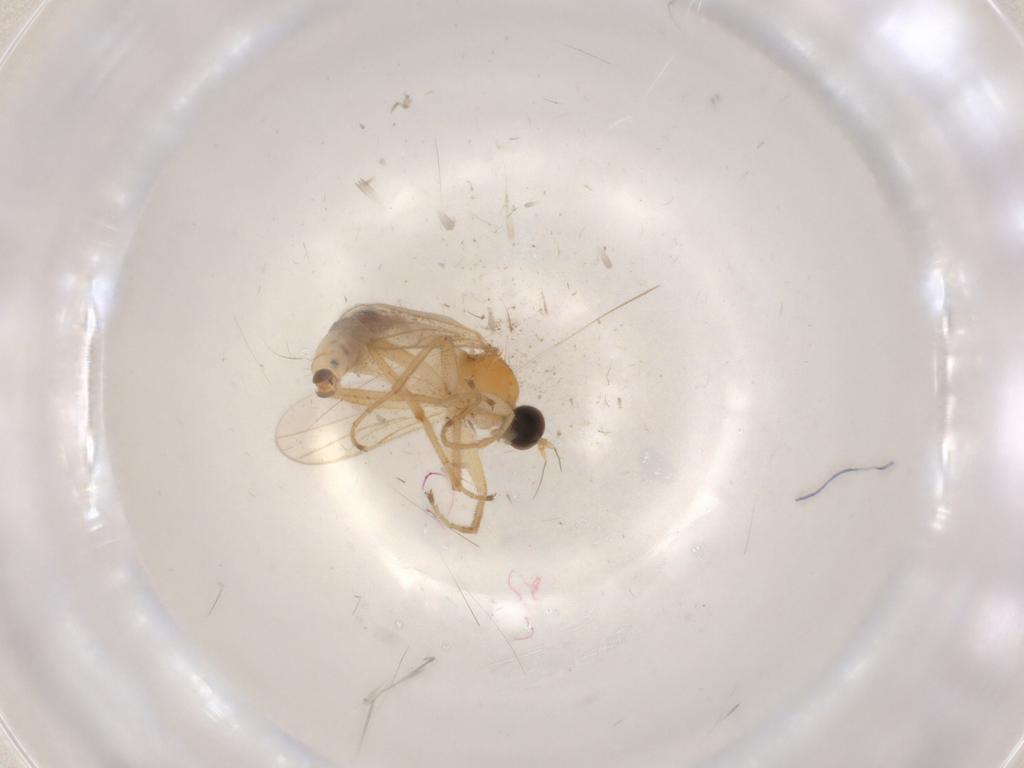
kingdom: Animalia
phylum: Arthropoda
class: Insecta
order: Diptera
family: Hybotidae
